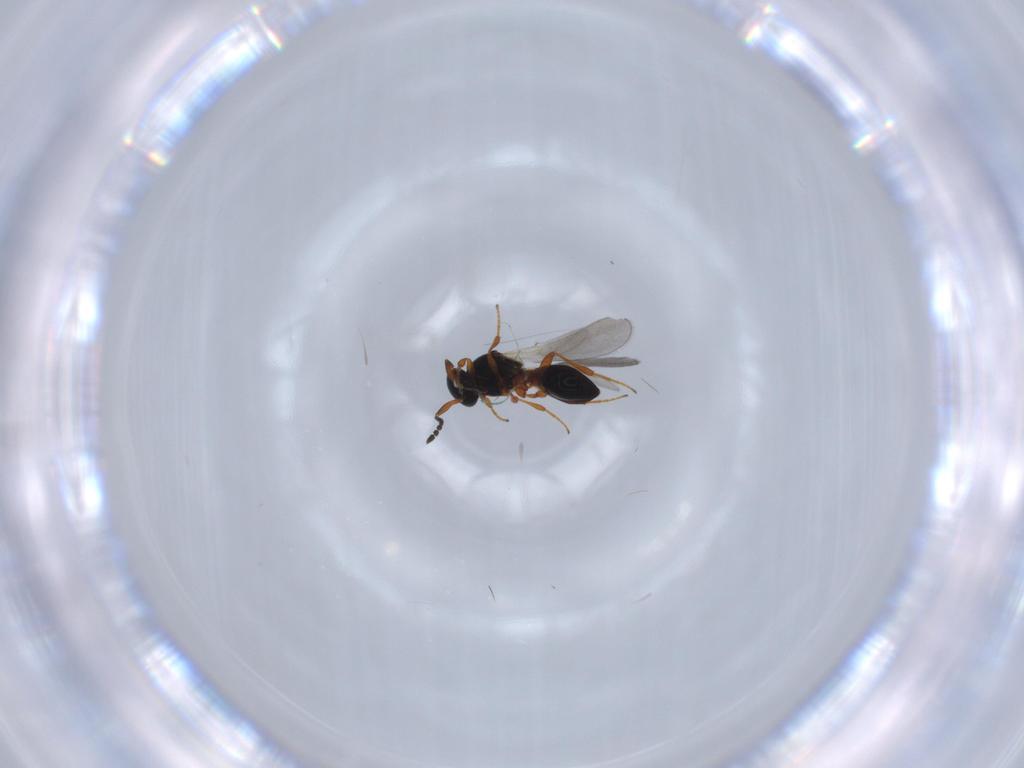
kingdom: Animalia
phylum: Arthropoda
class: Insecta
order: Hymenoptera
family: Platygastridae
